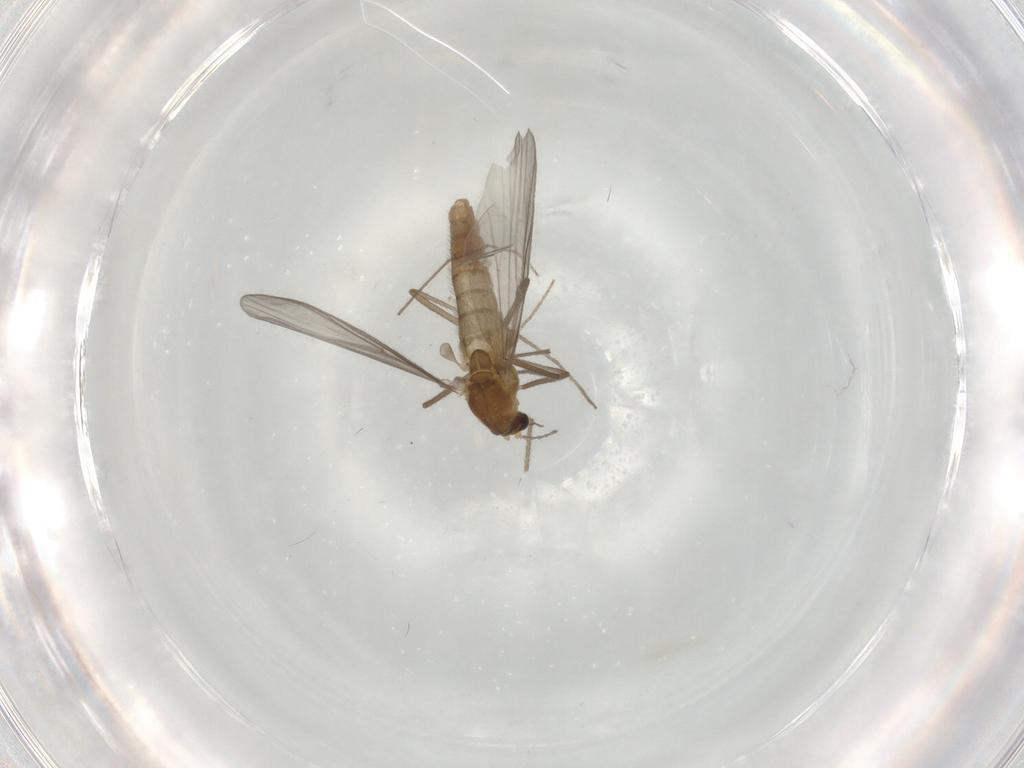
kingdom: Animalia
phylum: Arthropoda
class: Insecta
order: Diptera
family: Chironomidae
